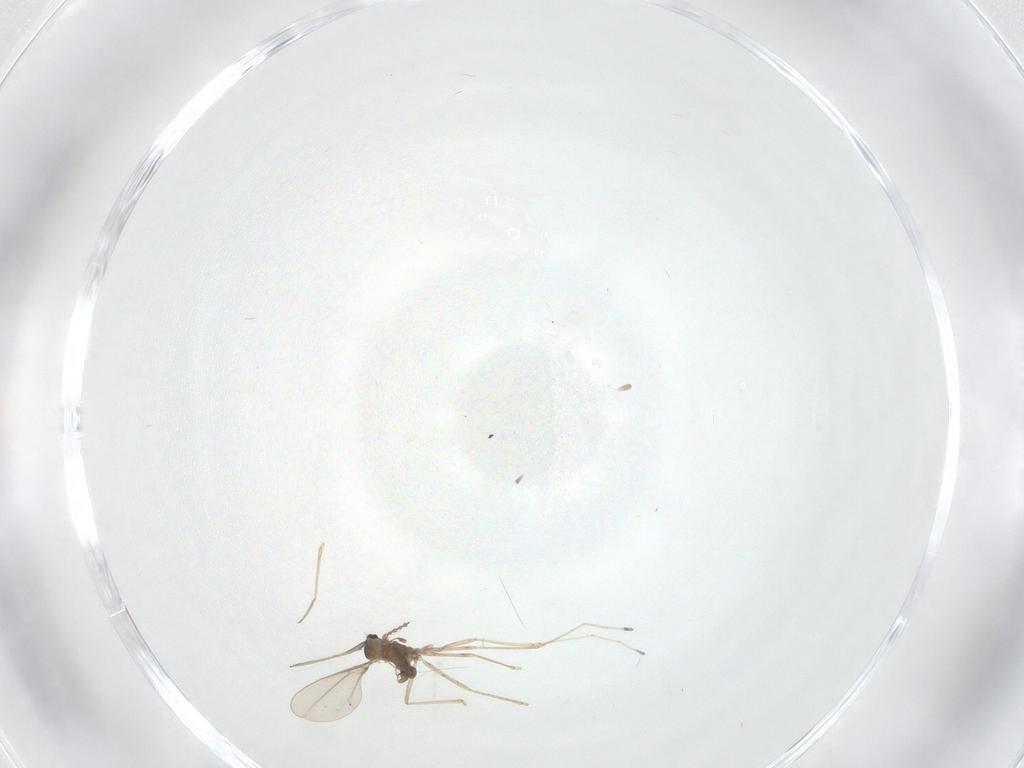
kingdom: Animalia
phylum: Arthropoda
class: Insecta
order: Diptera
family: Cecidomyiidae
